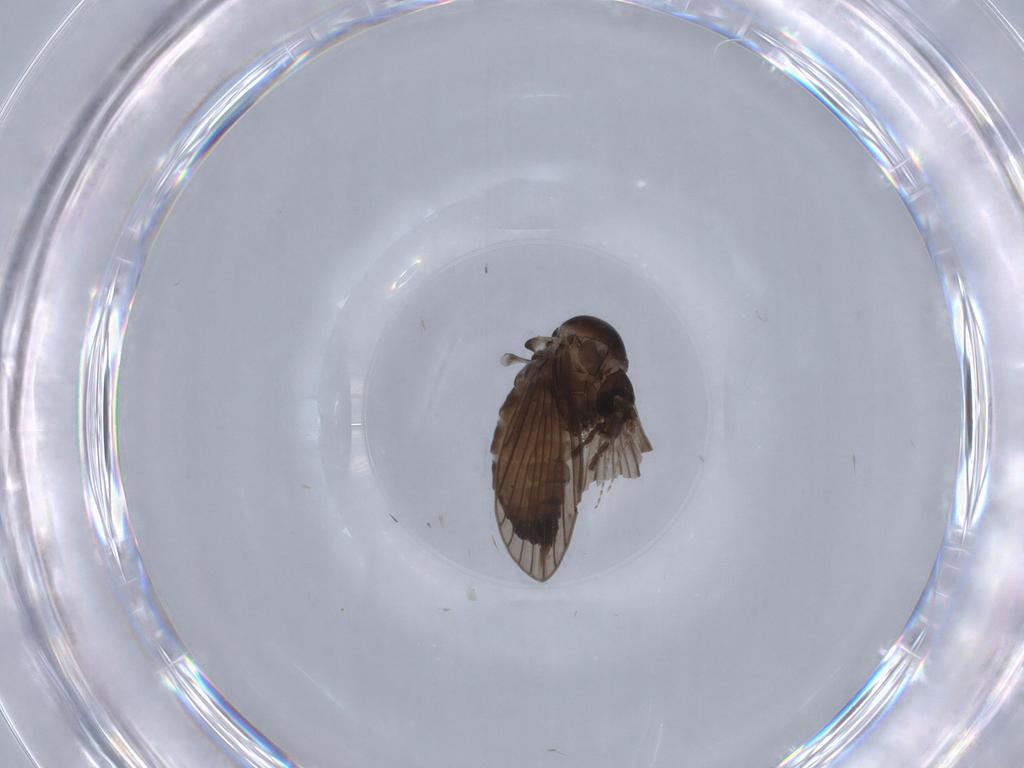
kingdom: Animalia
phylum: Arthropoda
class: Insecta
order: Diptera
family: Psychodidae
